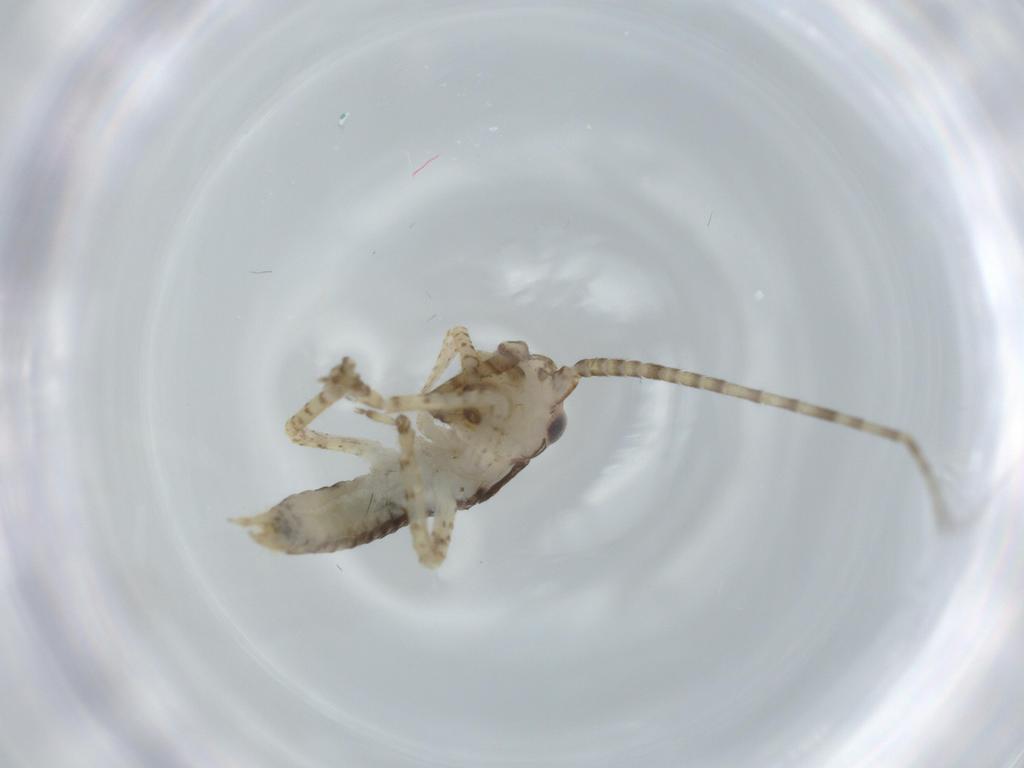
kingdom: Animalia
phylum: Arthropoda
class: Insecta
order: Orthoptera
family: Gryllidae
